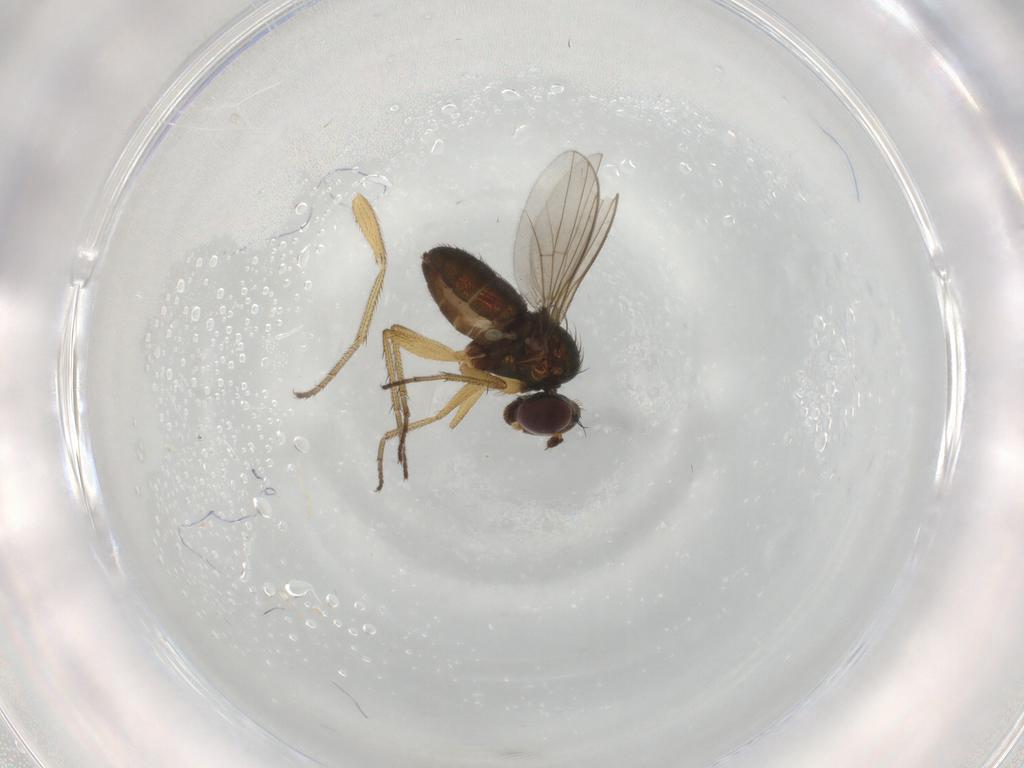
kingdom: Animalia
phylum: Arthropoda
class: Insecta
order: Diptera
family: Dolichopodidae
